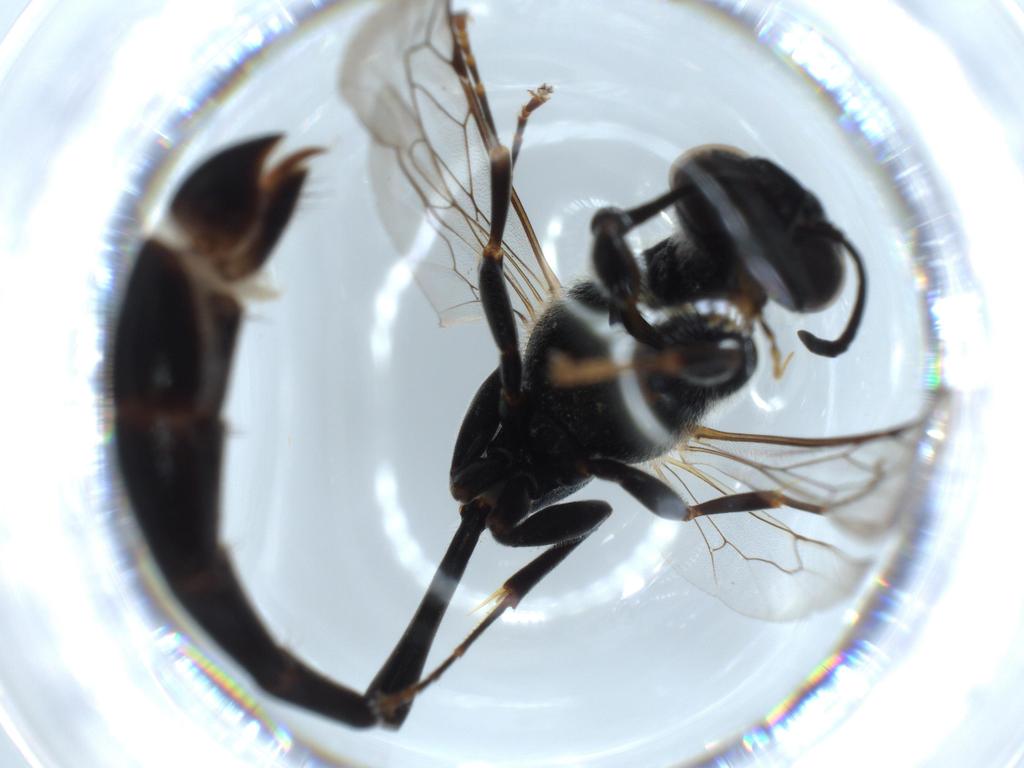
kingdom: Animalia
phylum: Arthropoda
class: Insecta
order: Hymenoptera
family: Crabronidae
